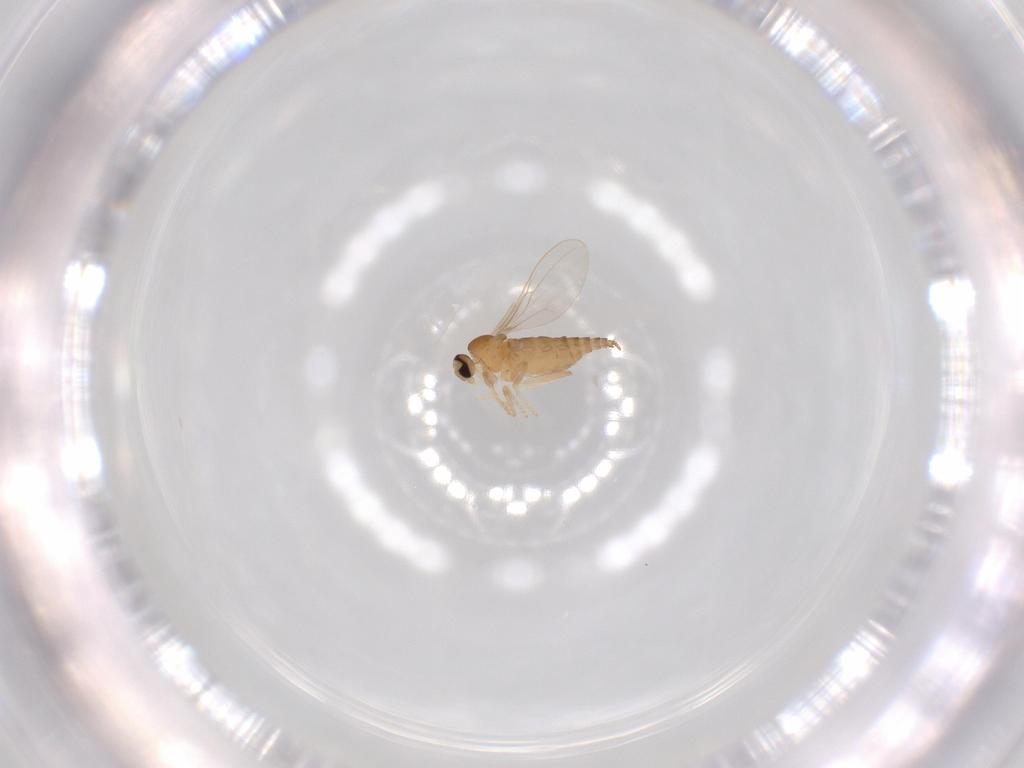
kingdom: Animalia
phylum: Arthropoda
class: Insecta
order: Diptera
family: Cecidomyiidae
